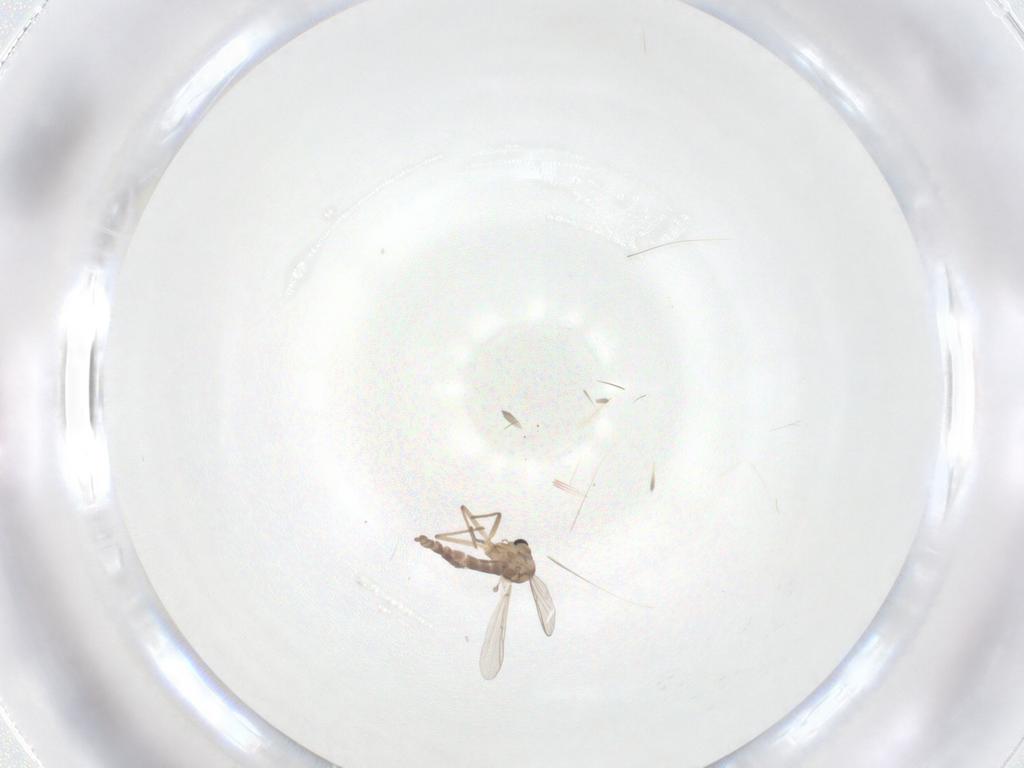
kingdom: Animalia
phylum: Arthropoda
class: Insecta
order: Diptera
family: Chironomidae
